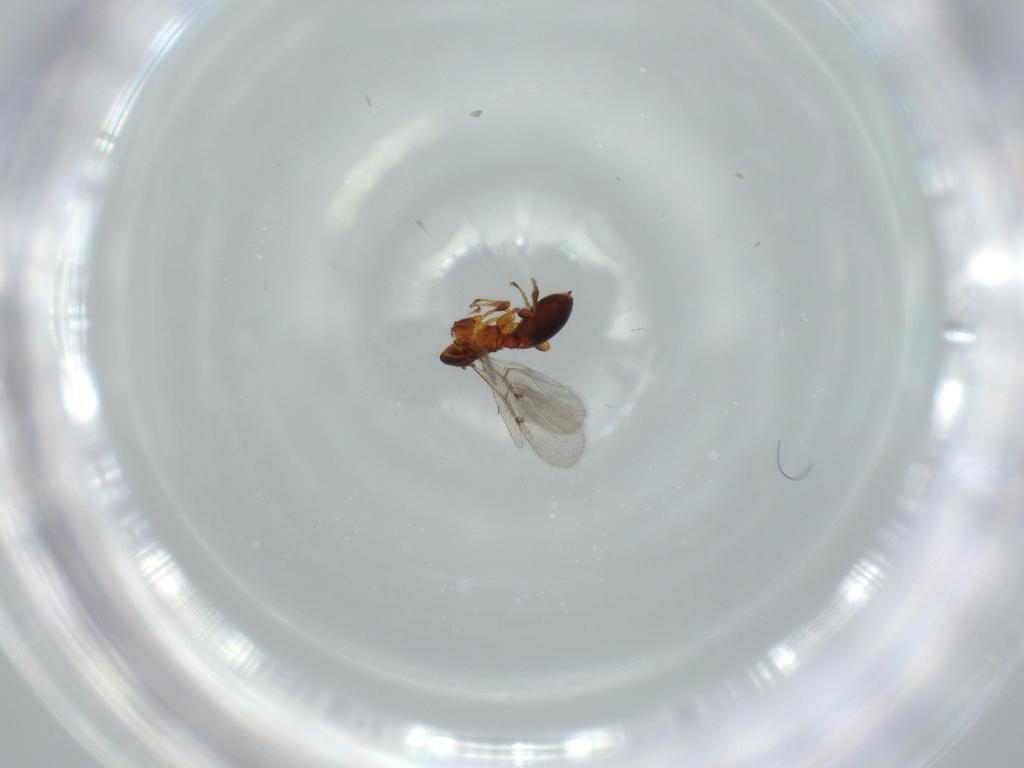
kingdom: Animalia
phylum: Arthropoda
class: Insecta
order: Hymenoptera
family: Diapriidae
